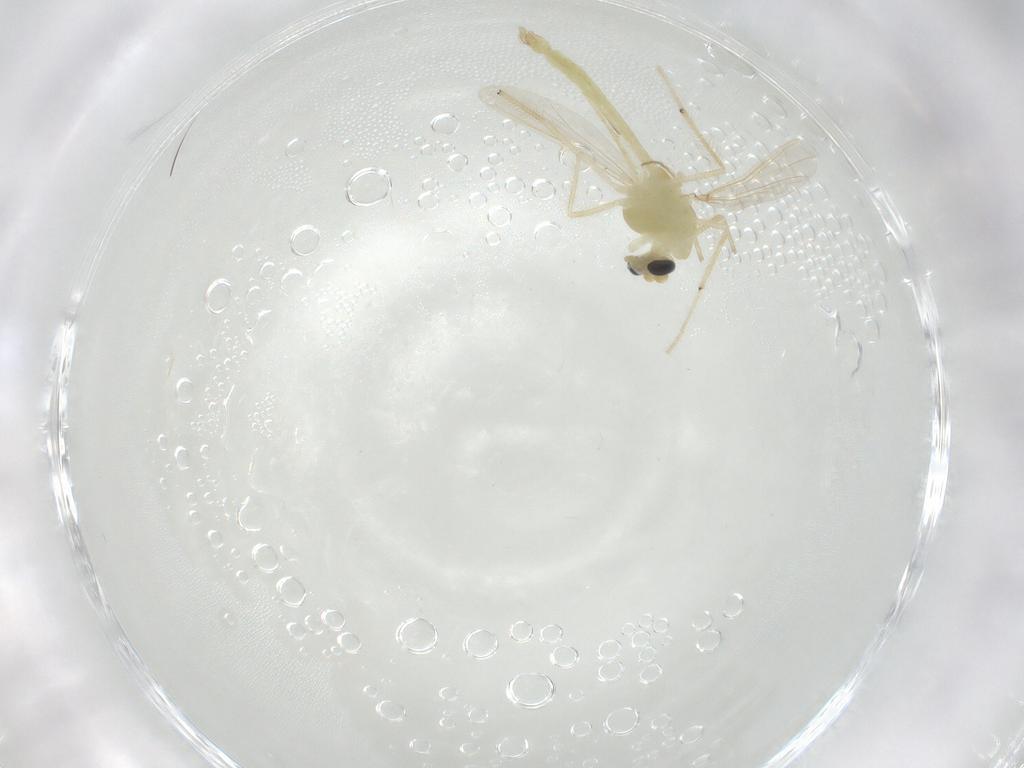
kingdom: Animalia
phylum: Arthropoda
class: Insecta
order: Diptera
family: Chironomidae
